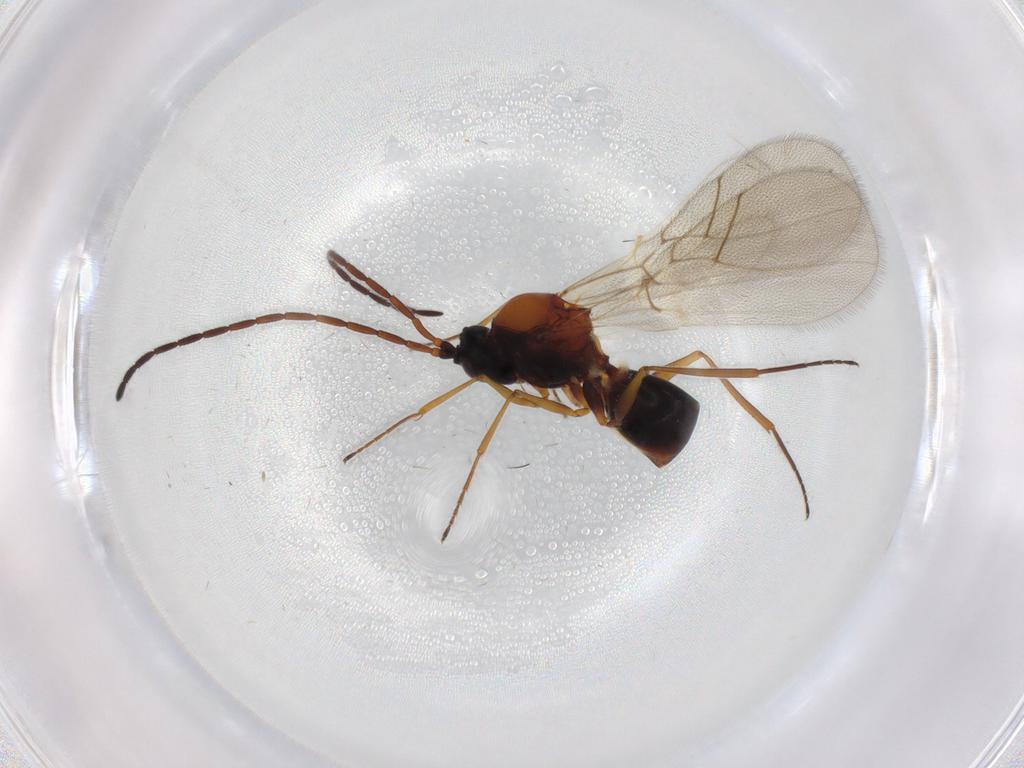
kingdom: Animalia
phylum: Arthropoda
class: Insecta
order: Hymenoptera
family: Figitidae
